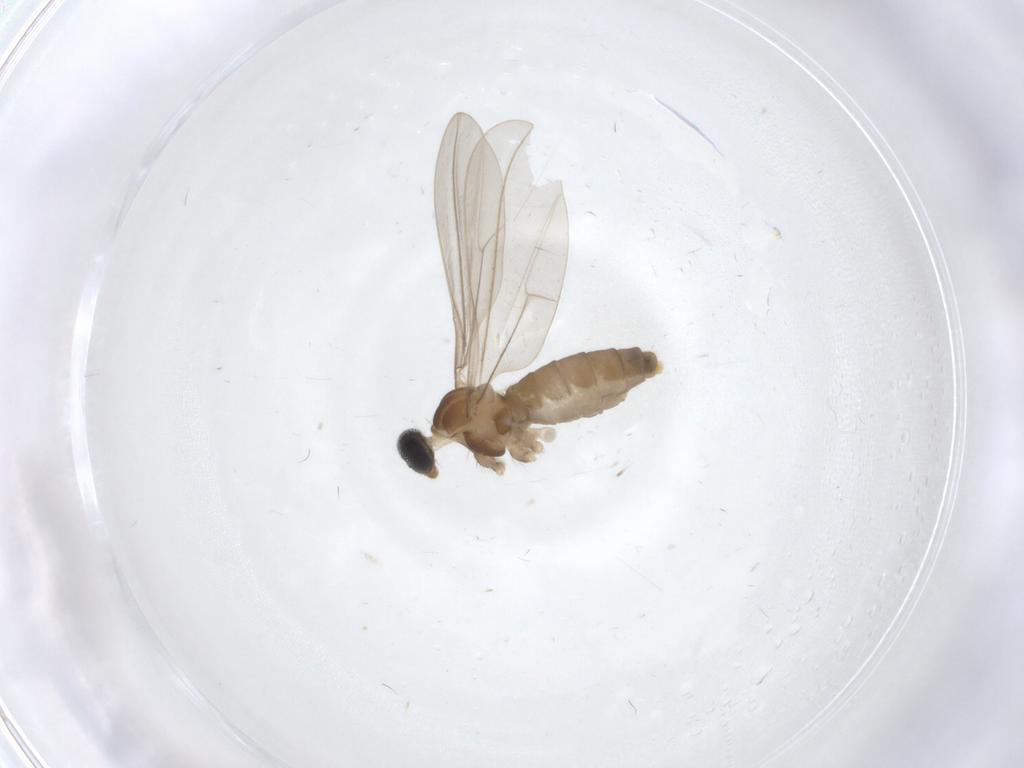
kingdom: Animalia
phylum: Arthropoda
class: Insecta
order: Diptera
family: Cecidomyiidae
